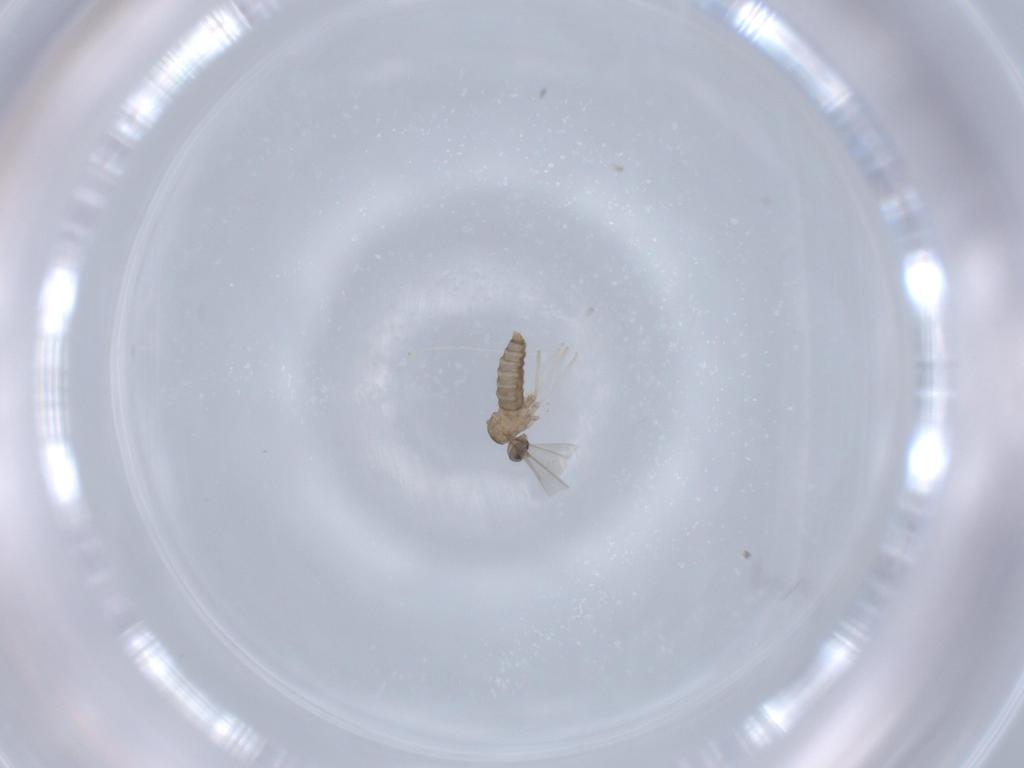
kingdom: Animalia
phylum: Arthropoda
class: Insecta
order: Diptera
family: Cecidomyiidae
